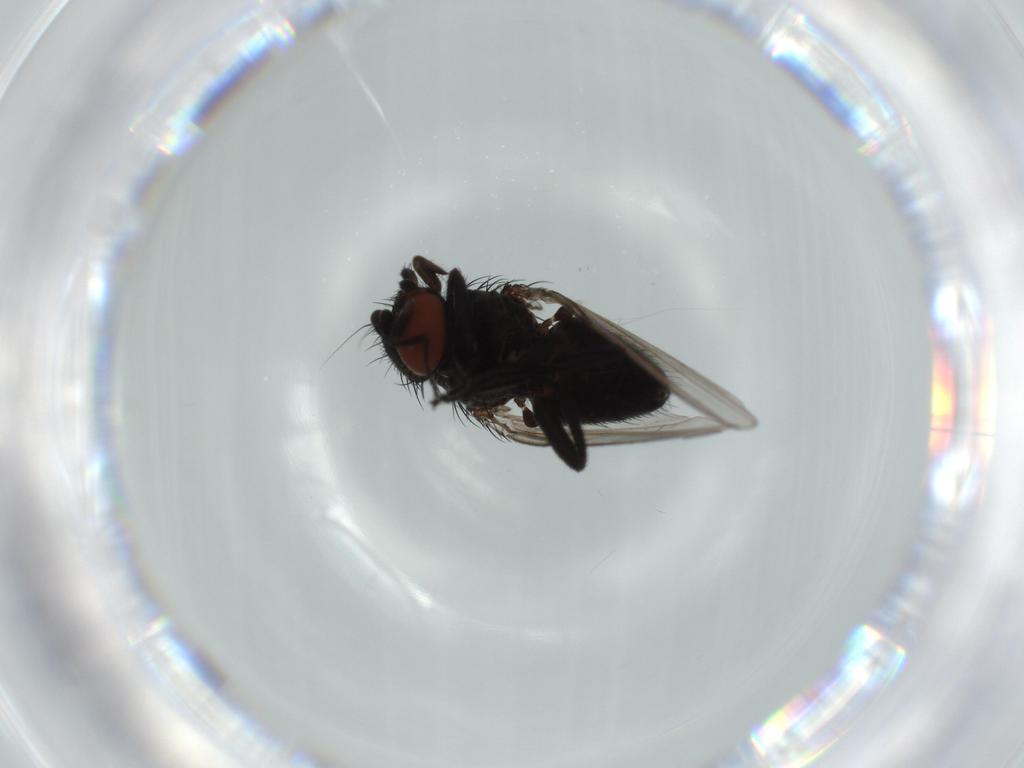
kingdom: Animalia
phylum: Arthropoda
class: Insecta
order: Diptera
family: Milichiidae
